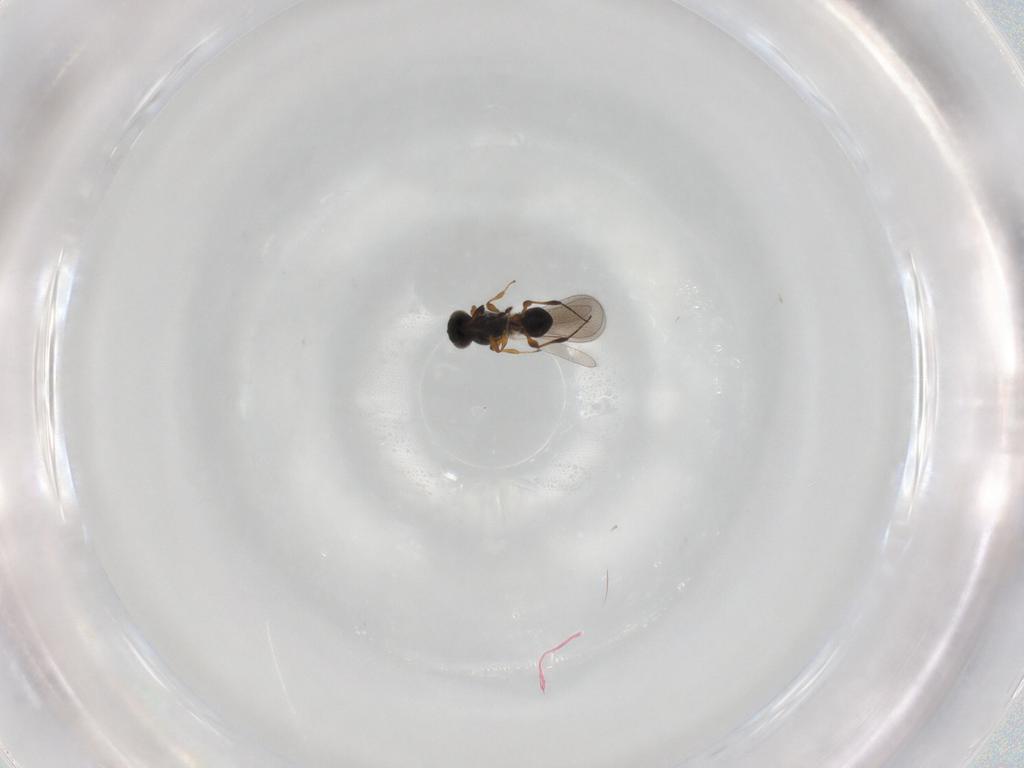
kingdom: Animalia
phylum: Arthropoda
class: Insecta
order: Hymenoptera
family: Platygastridae
